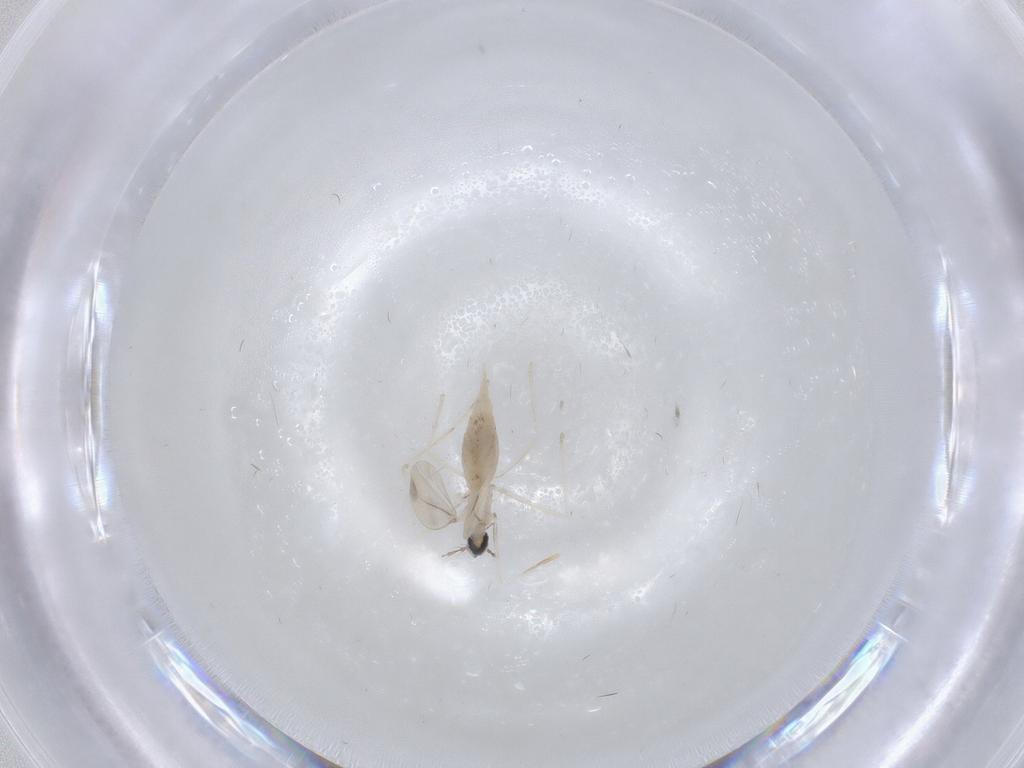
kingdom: Animalia
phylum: Arthropoda
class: Insecta
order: Diptera
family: Cecidomyiidae
